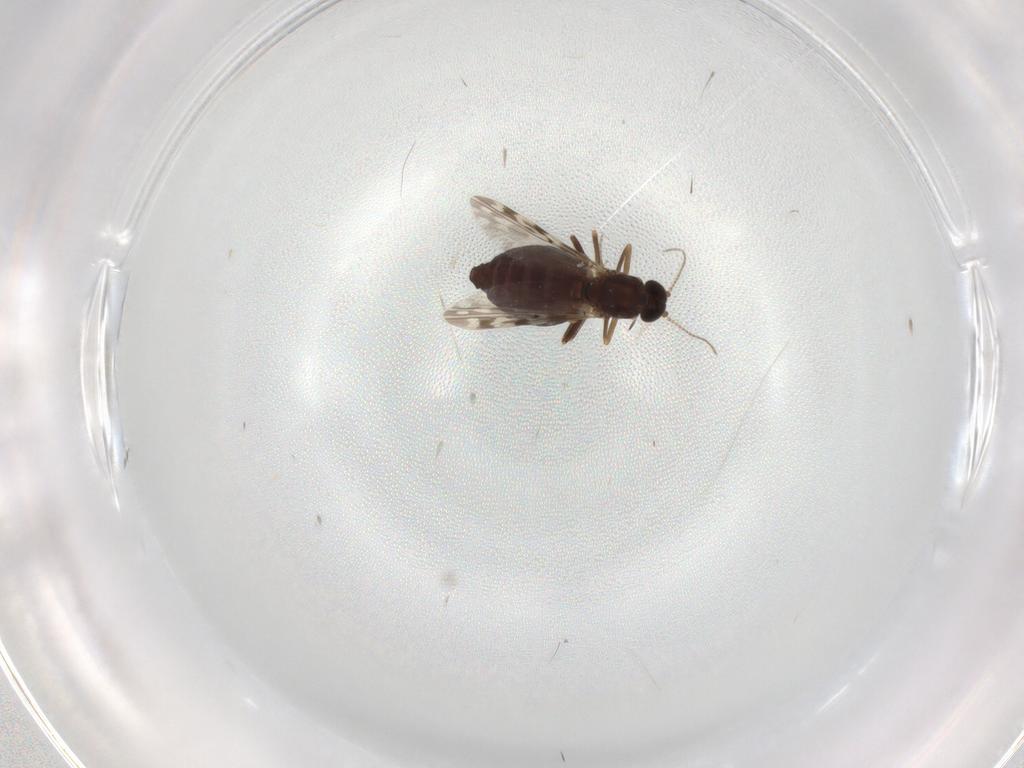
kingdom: Animalia
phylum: Arthropoda
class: Insecta
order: Diptera
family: Ceratopogonidae
